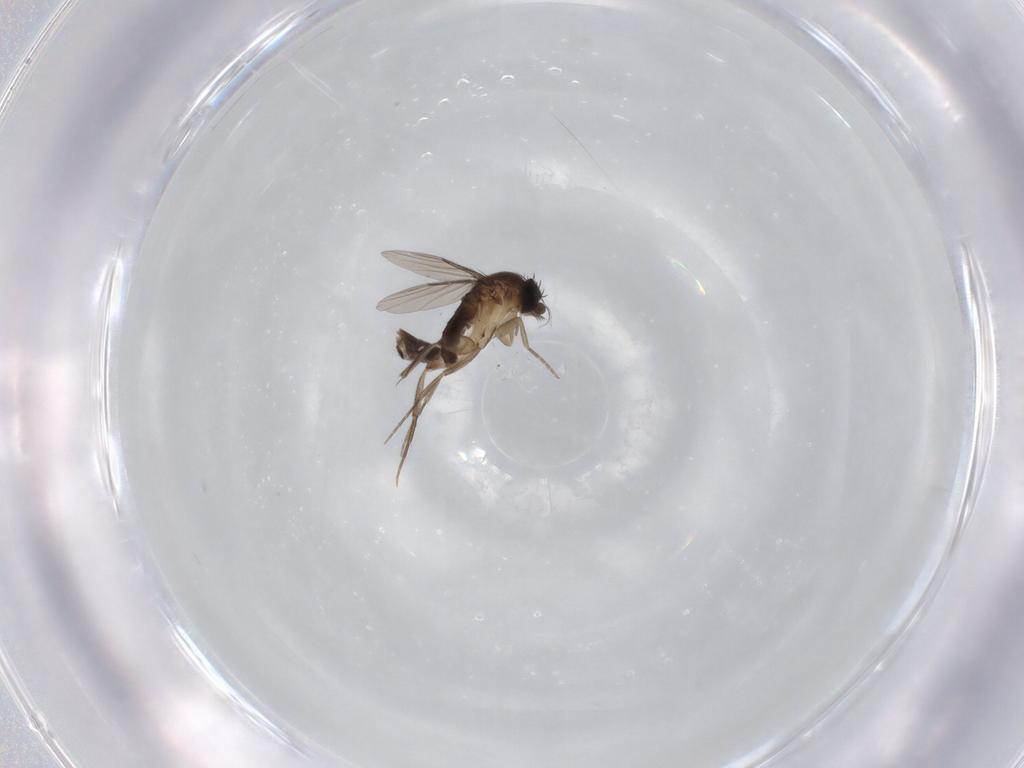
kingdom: Animalia
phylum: Arthropoda
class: Insecta
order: Diptera
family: Phoridae
